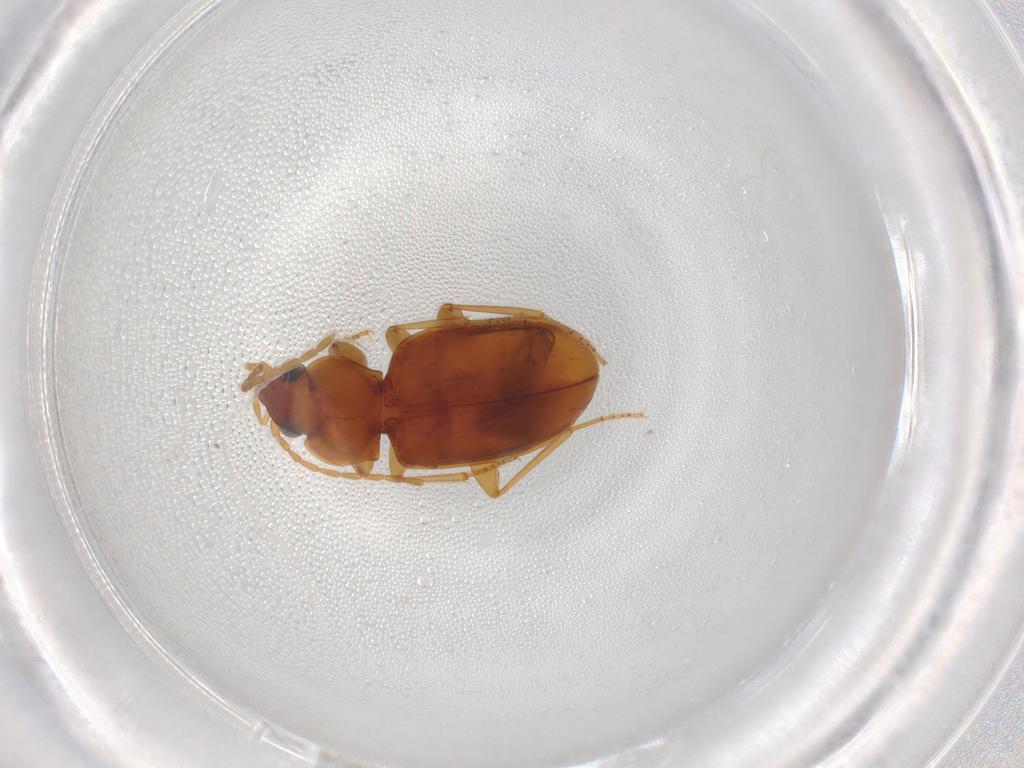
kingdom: Animalia
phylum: Arthropoda
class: Insecta
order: Coleoptera
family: Carabidae
